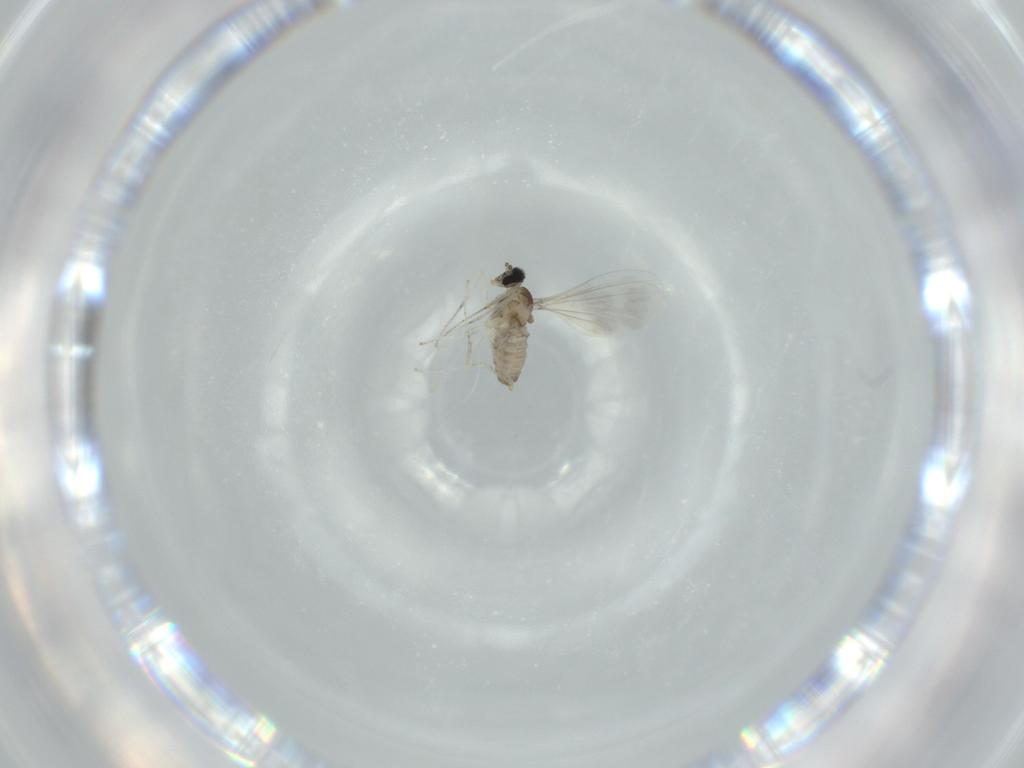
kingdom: Animalia
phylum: Arthropoda
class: Insecta
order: Diptera
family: Cecidomyiidae
